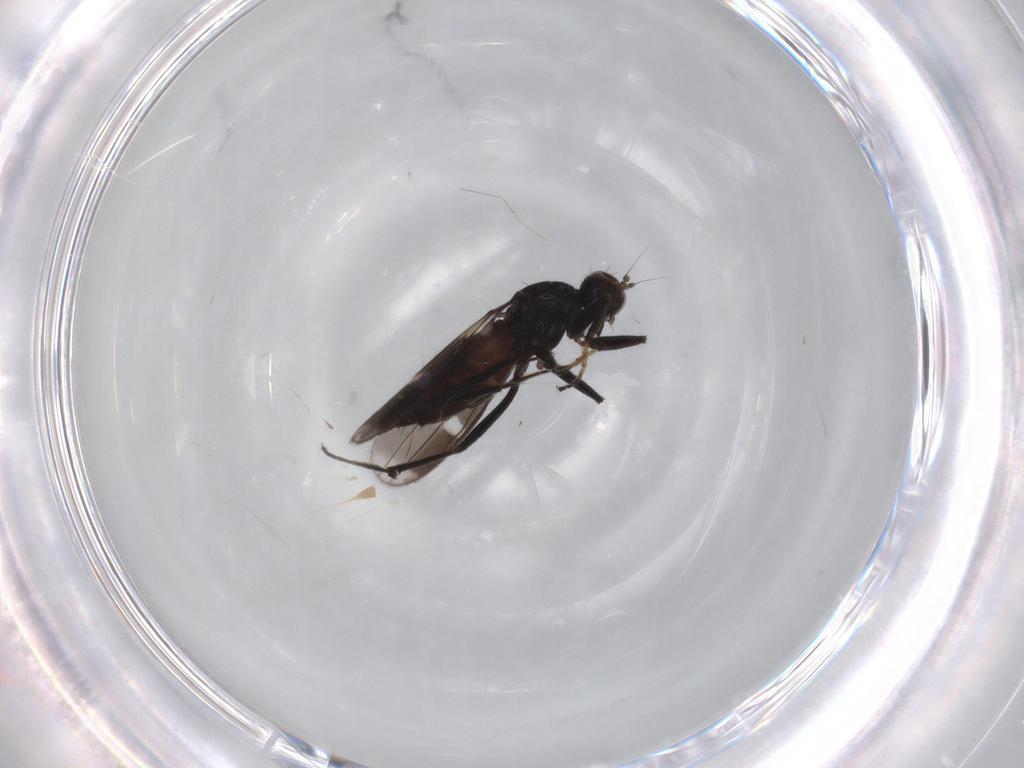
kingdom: Animalia
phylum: Arthropoda
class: Insecta
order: Diptera
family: Hybotidae
